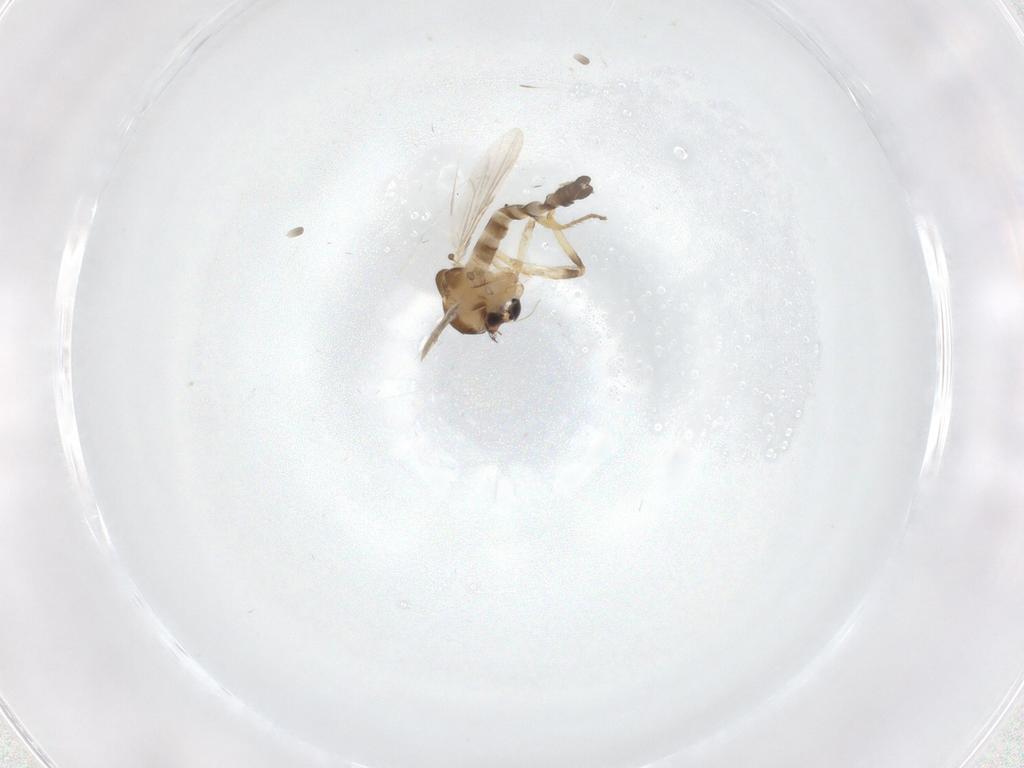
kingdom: Animalia
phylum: Arthropoda
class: Insecta
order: Diptera
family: Ceratopogonidae
